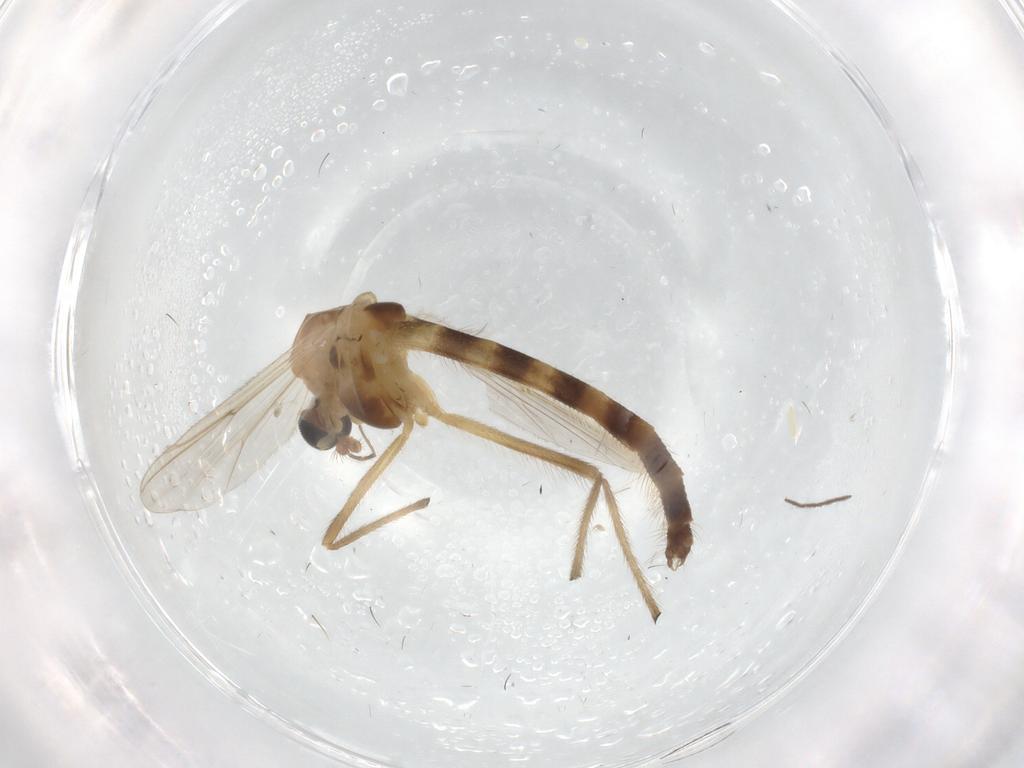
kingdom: Animalia
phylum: Arthropoda
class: Insecta
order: Diptera
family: Chironomidae
